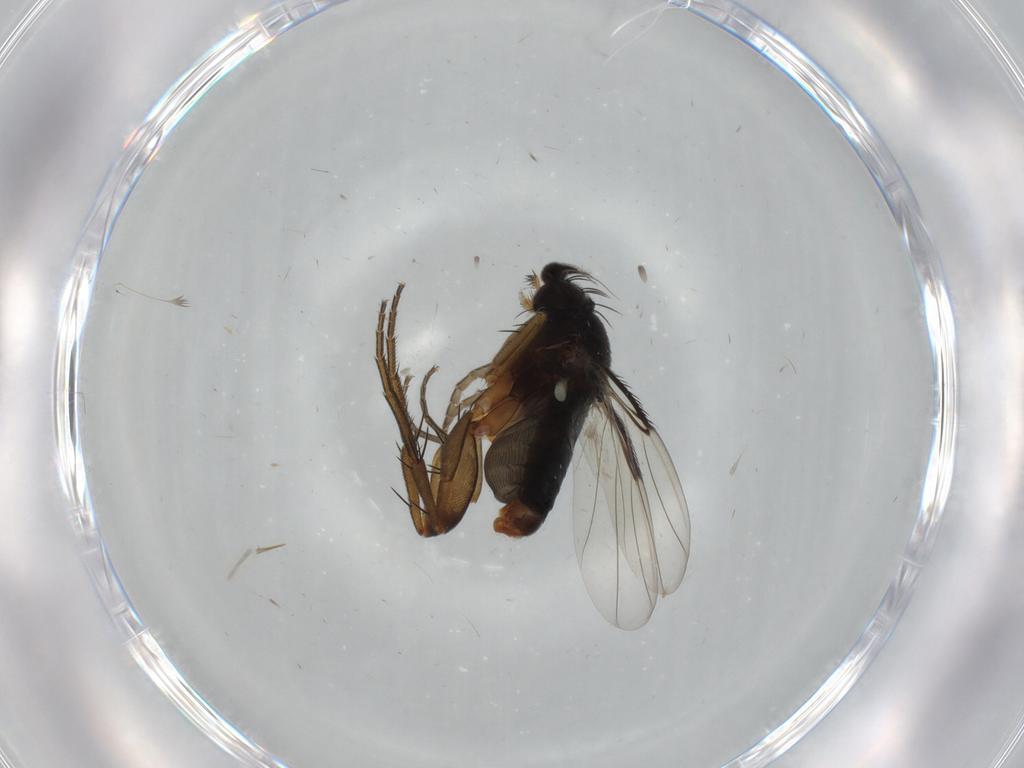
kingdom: Animalia
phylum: Arthropoda
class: Insecta
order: Diptera
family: Phoridae
